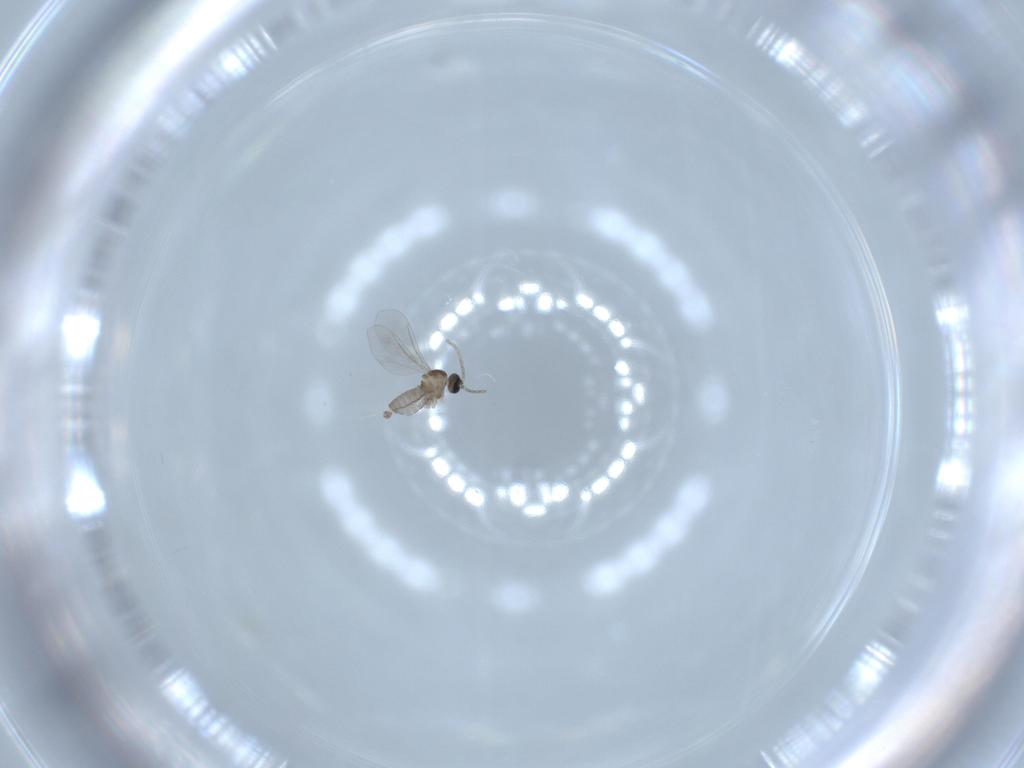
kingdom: Animalia
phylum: Arthropoda
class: Insecta
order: Diptera
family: Cecidomyiidae
